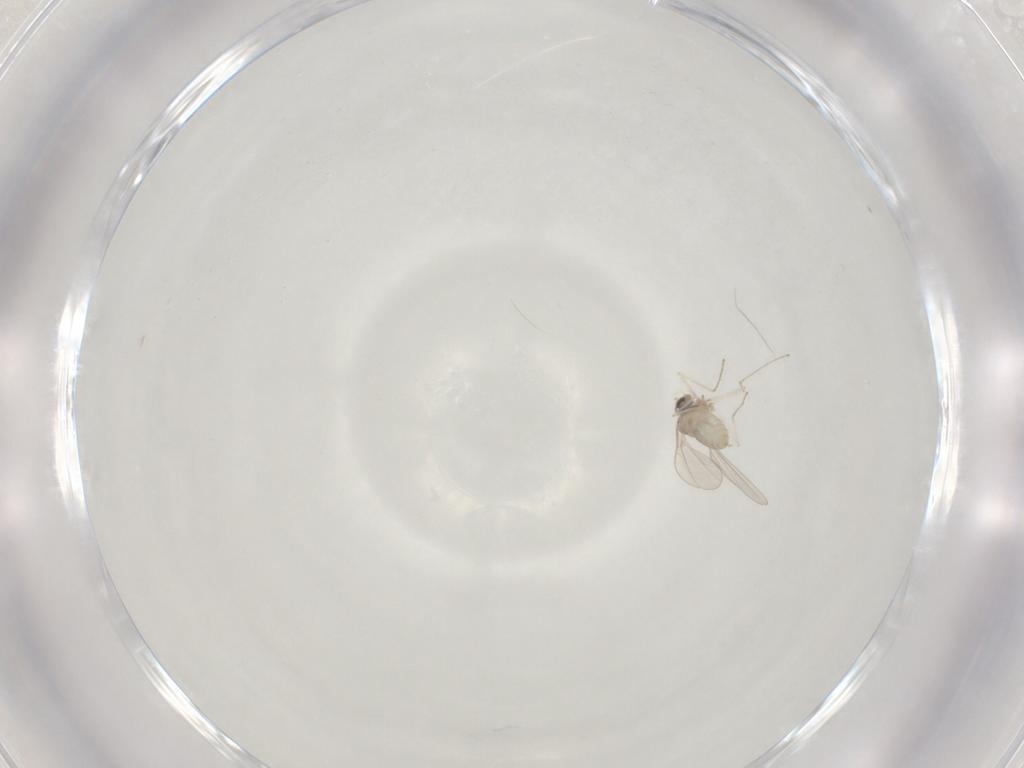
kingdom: Animalia
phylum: Arthropoda
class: Insecta
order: Diptera
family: Cecidomyiidae
